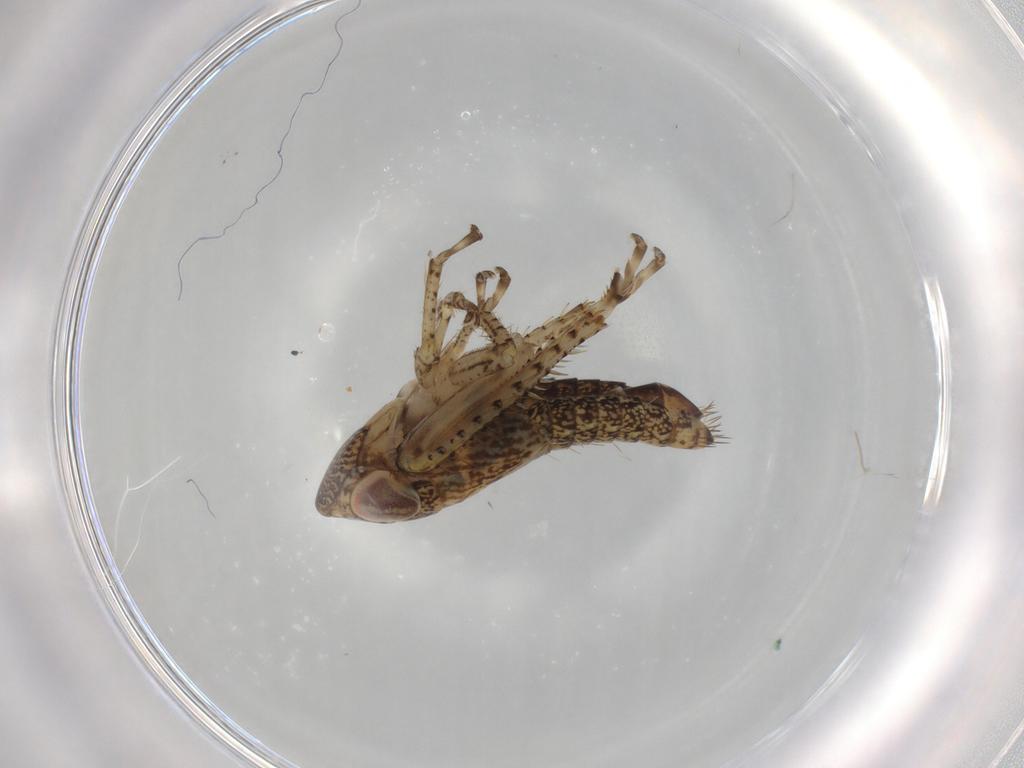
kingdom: Animalia
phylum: Arthropoda
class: Insecta
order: Hemiptera
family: Cicadellidae
